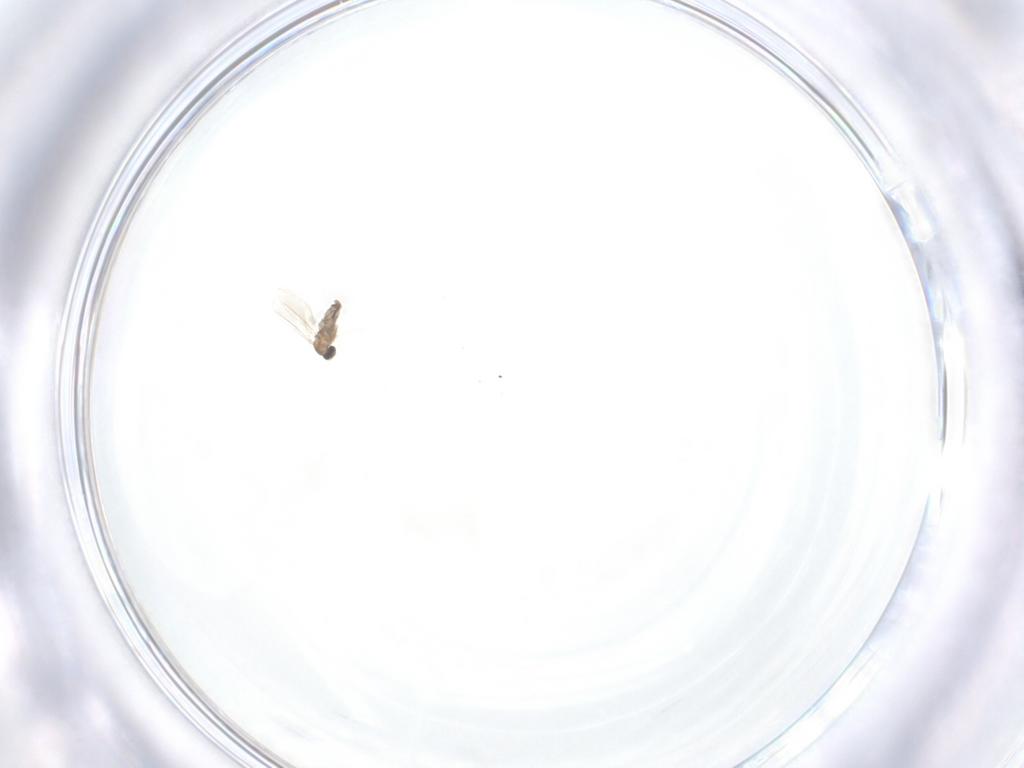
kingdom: Animalia
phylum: Arthropoda
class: Insecta
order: Diptera
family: Cecidomyiidae
